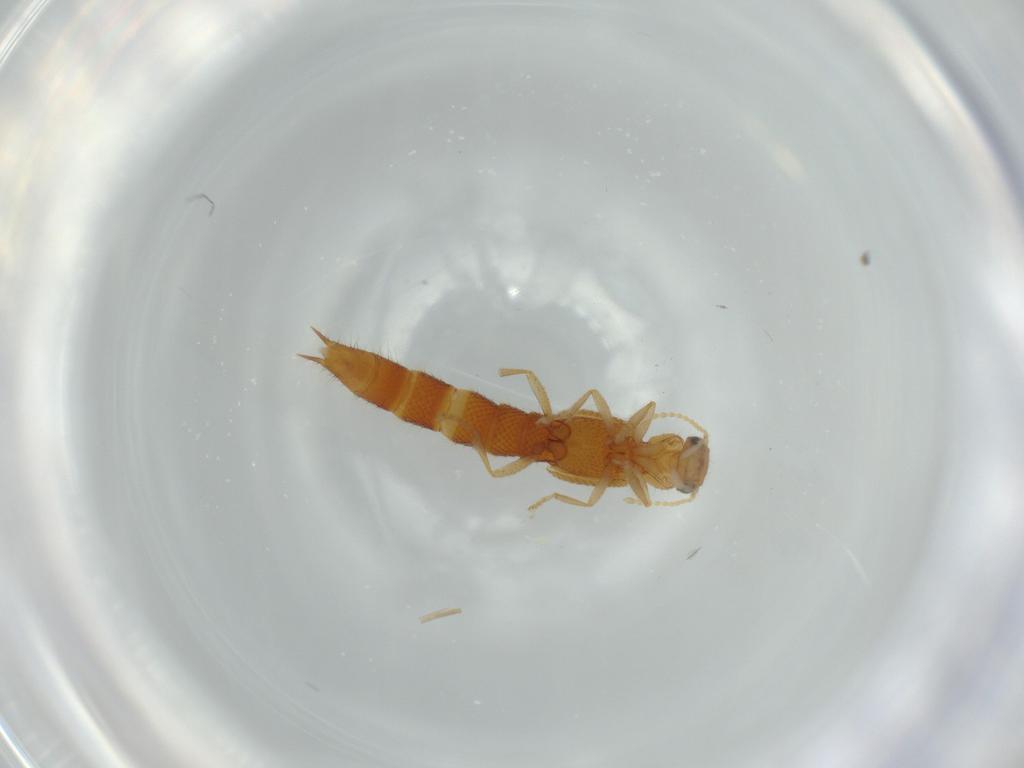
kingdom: Animalia
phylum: Arthropoda
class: Insecta
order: Coleoptera
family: Staphylinidae
